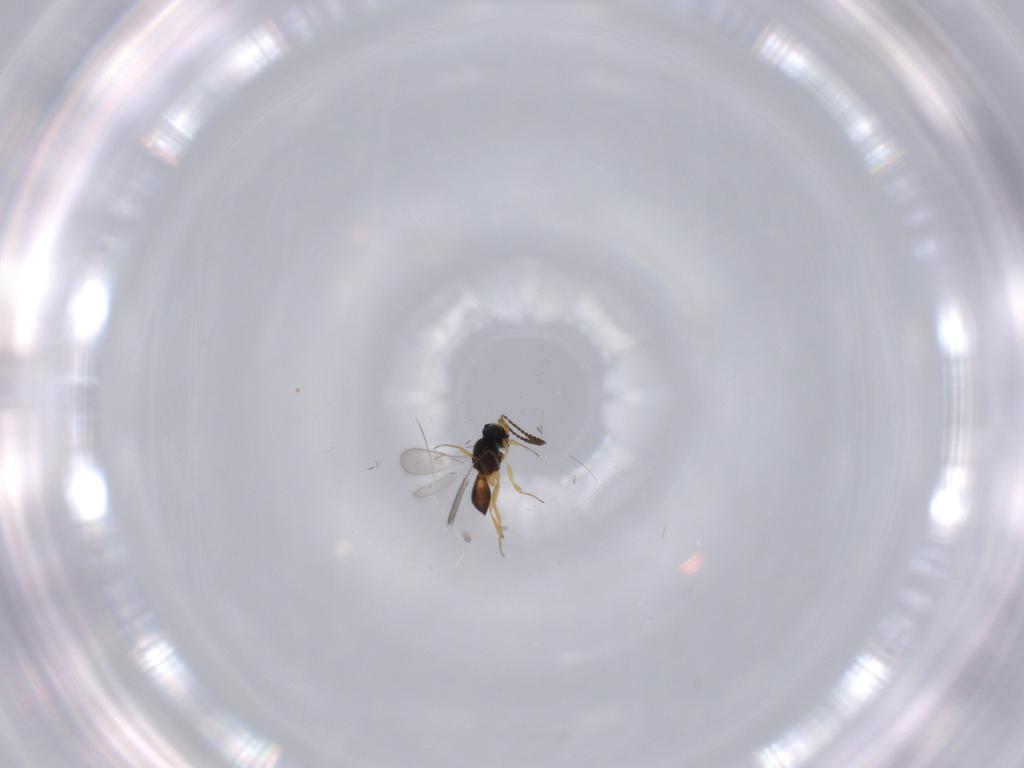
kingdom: Animalia
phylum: Arthropoda
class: Insecta
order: Hymenoptera
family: Scelionidae
